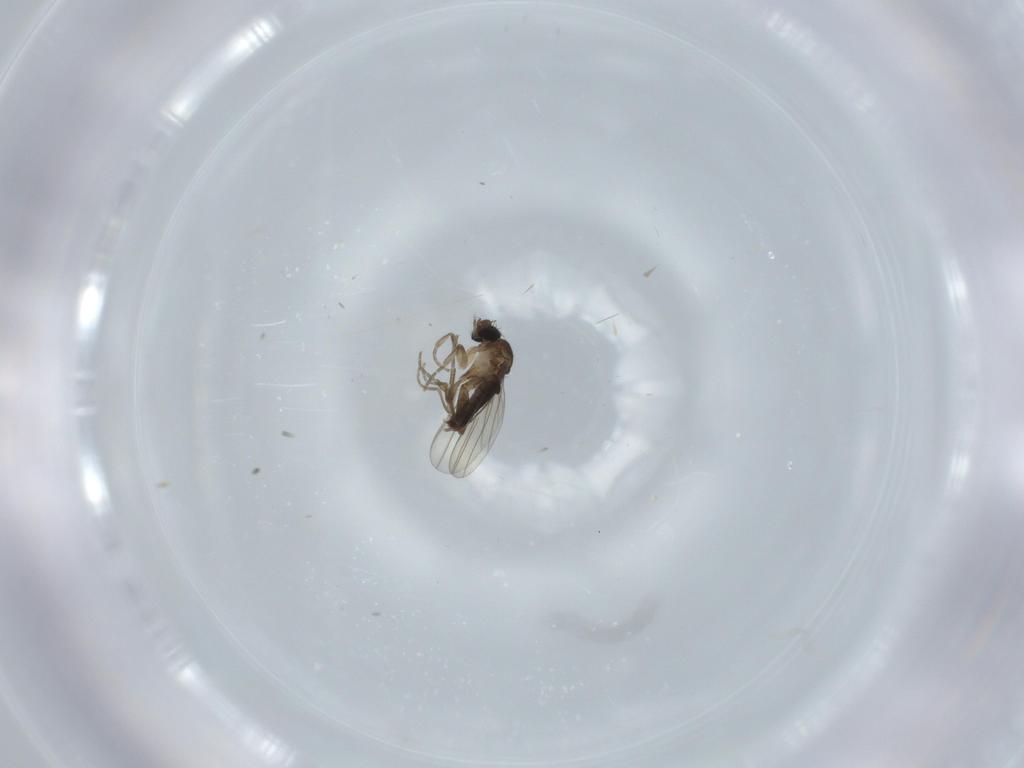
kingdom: Animalia
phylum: Arthropoda
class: Insecta
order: Diptera
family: Phoridae
